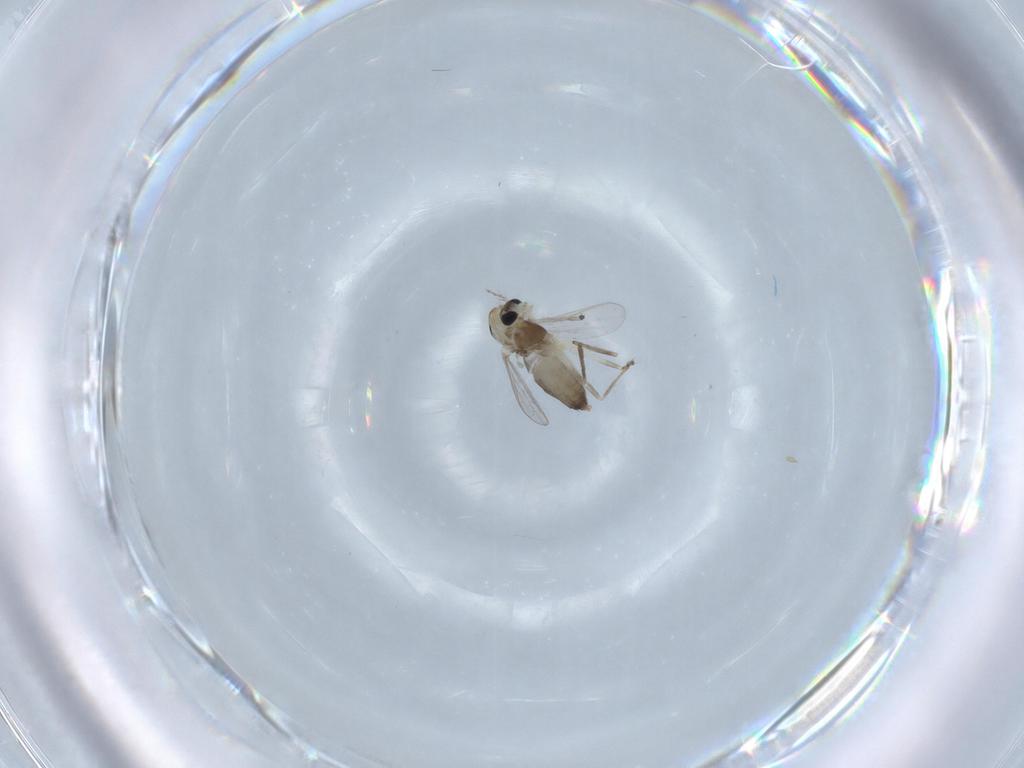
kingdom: Animalia
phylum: Arthropoda
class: Insecta
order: Diptera
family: Chironomidae
